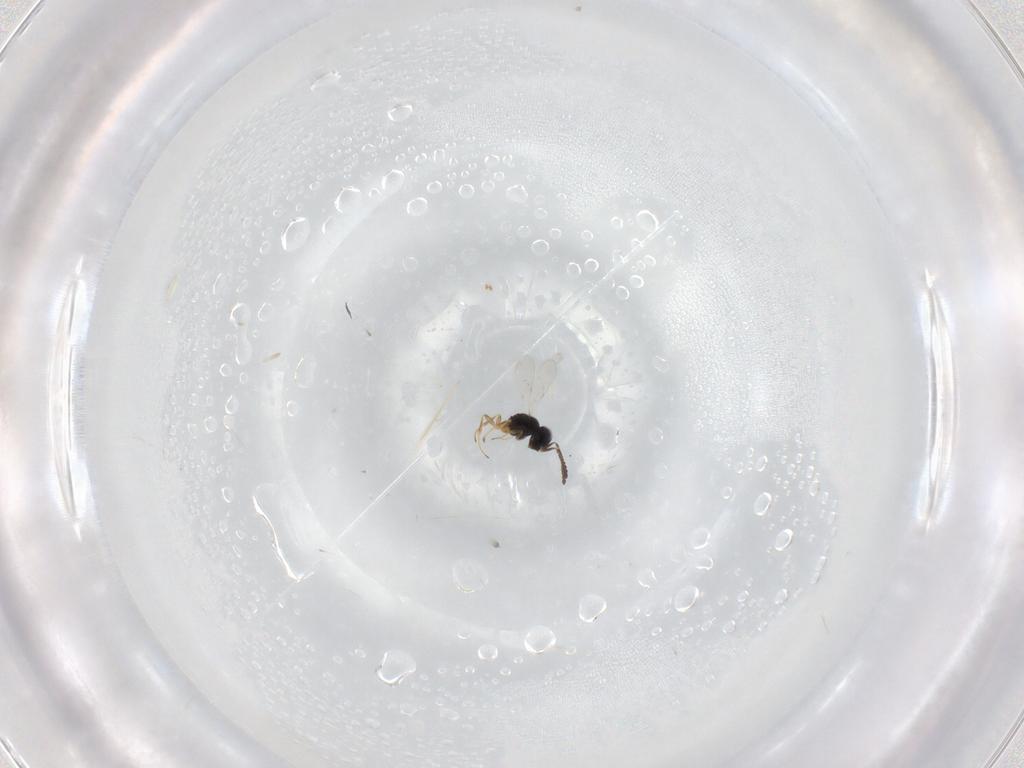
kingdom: Animalia
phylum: Arthropoda
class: Insecta
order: Hymenoptera
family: Scelionidae
